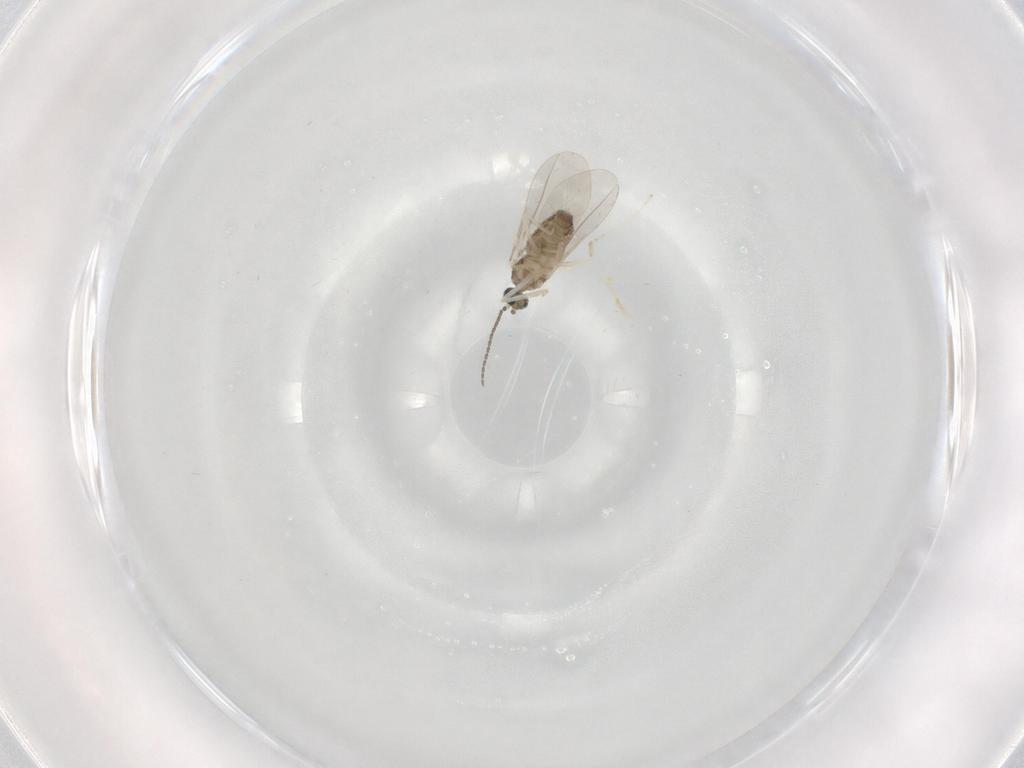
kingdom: Animalia
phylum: Arthropoda
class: Insecta
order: Diptera
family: Cecidomyiidae
